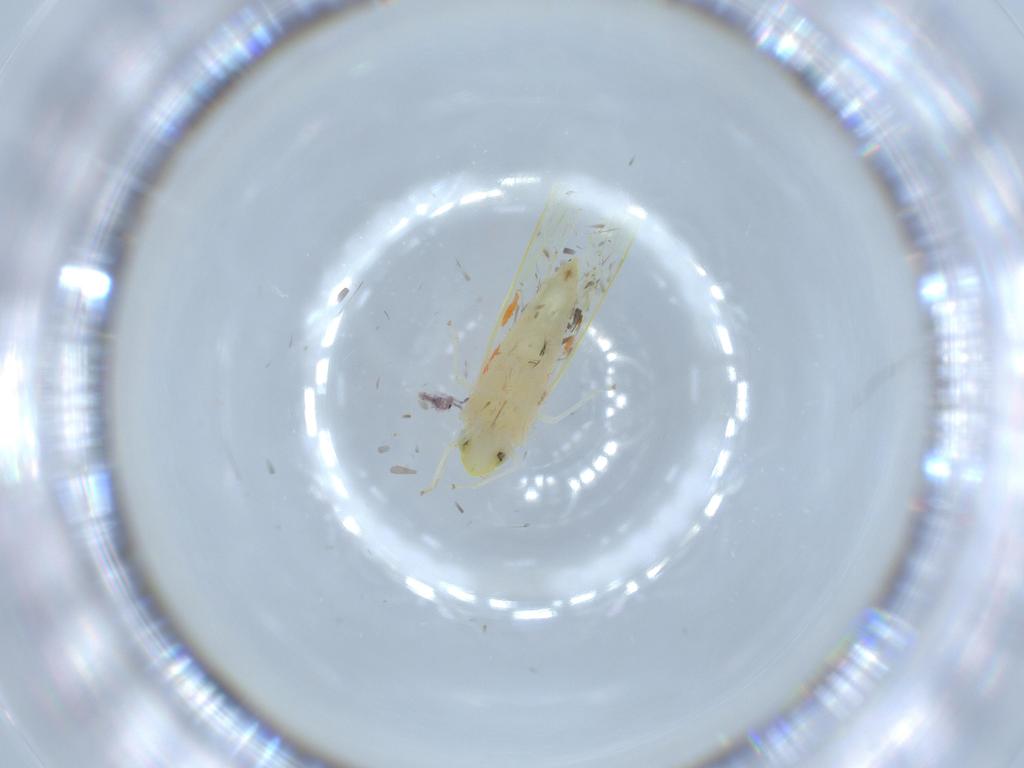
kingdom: Animalia
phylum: Arthropoda
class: Insecta
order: Hemiptera
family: Cicadellidae
